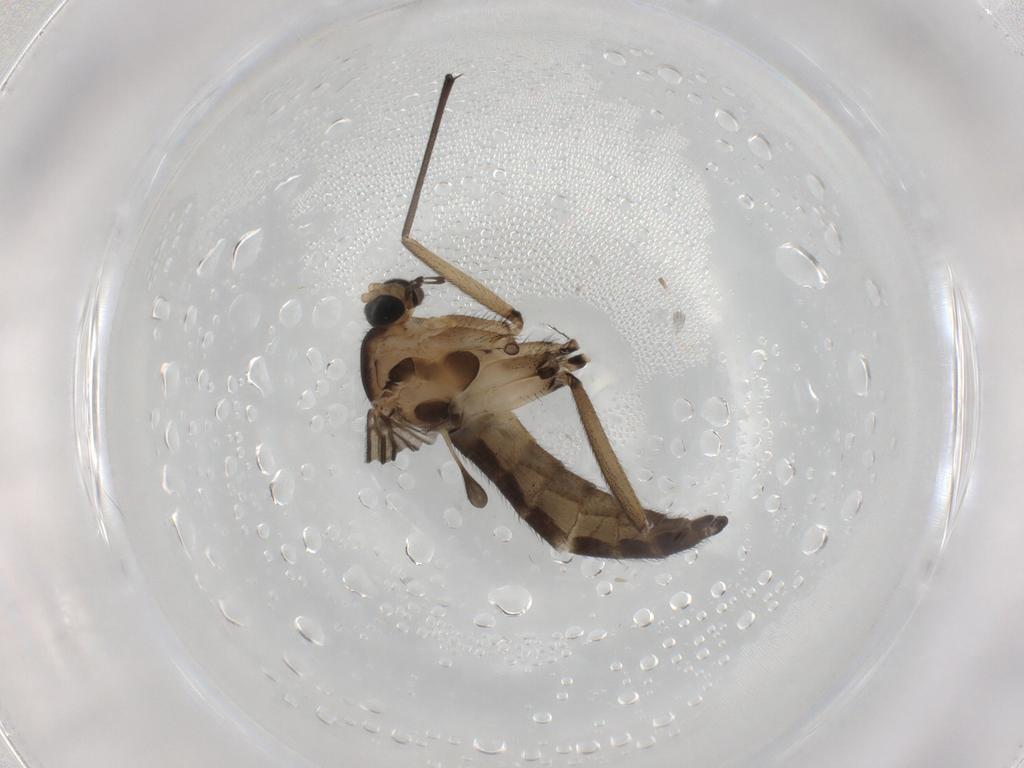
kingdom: Animalia
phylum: Arthropoda
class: Insecta
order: Diptera
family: Sciaridae
